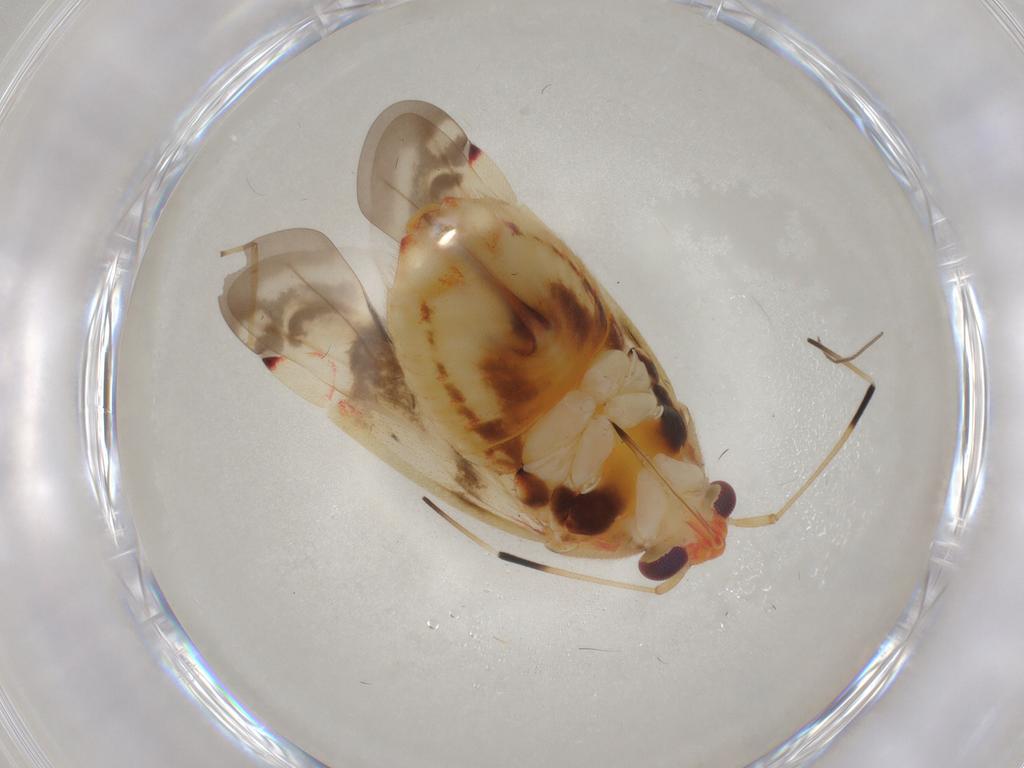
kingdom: Animalia
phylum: Arthropoda
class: Insecta
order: Hemiptera
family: Miridae
